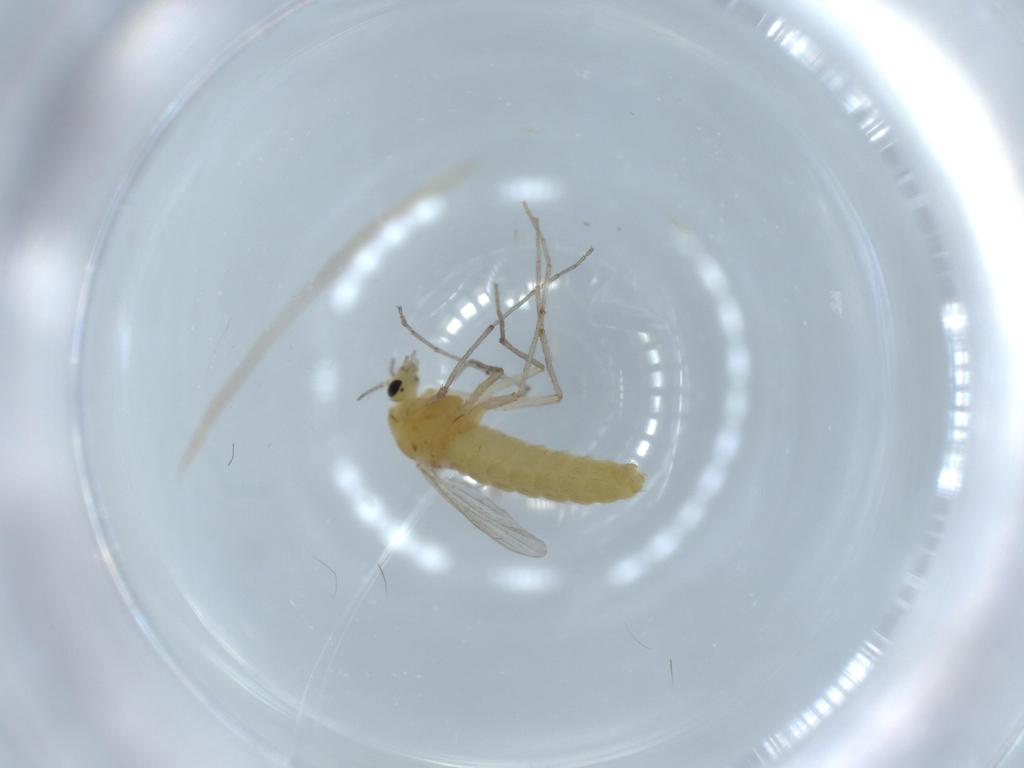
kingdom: Animalia
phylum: Arthropoda
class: Insecta
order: Diptera
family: Chironomidae
